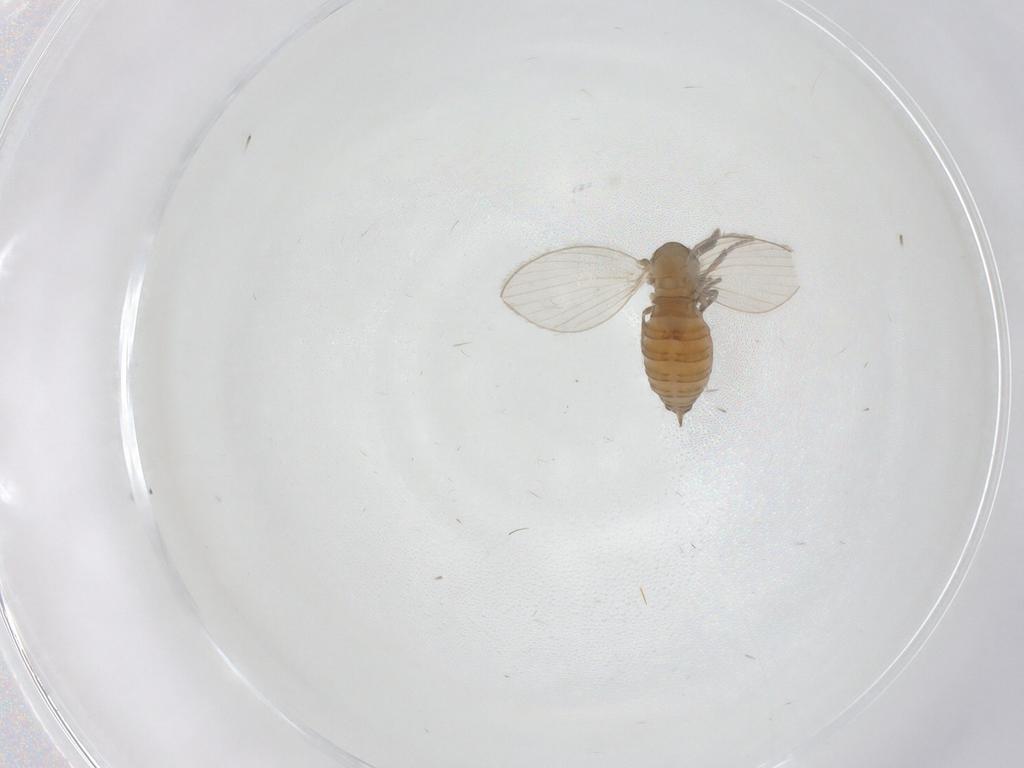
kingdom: Animalia
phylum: Arthropoda
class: Insecta
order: Diptera
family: Psychodidae
